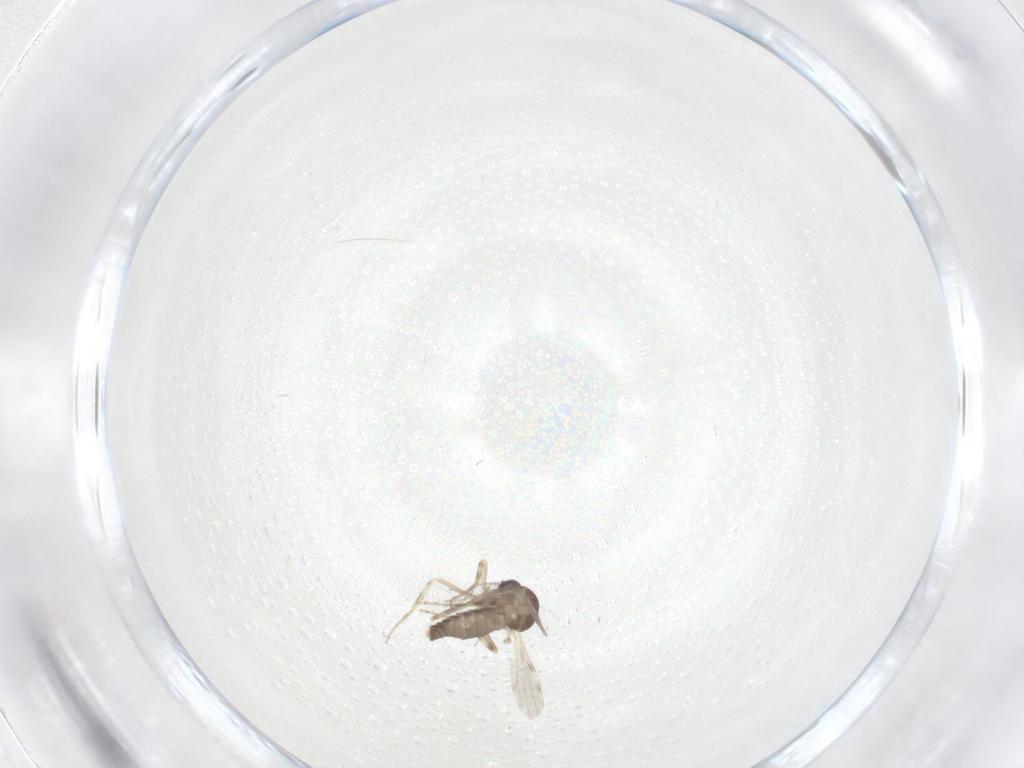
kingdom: Animalia
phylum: Arthropoda
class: Insecta
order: Diptera
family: Ceratopogonidae
